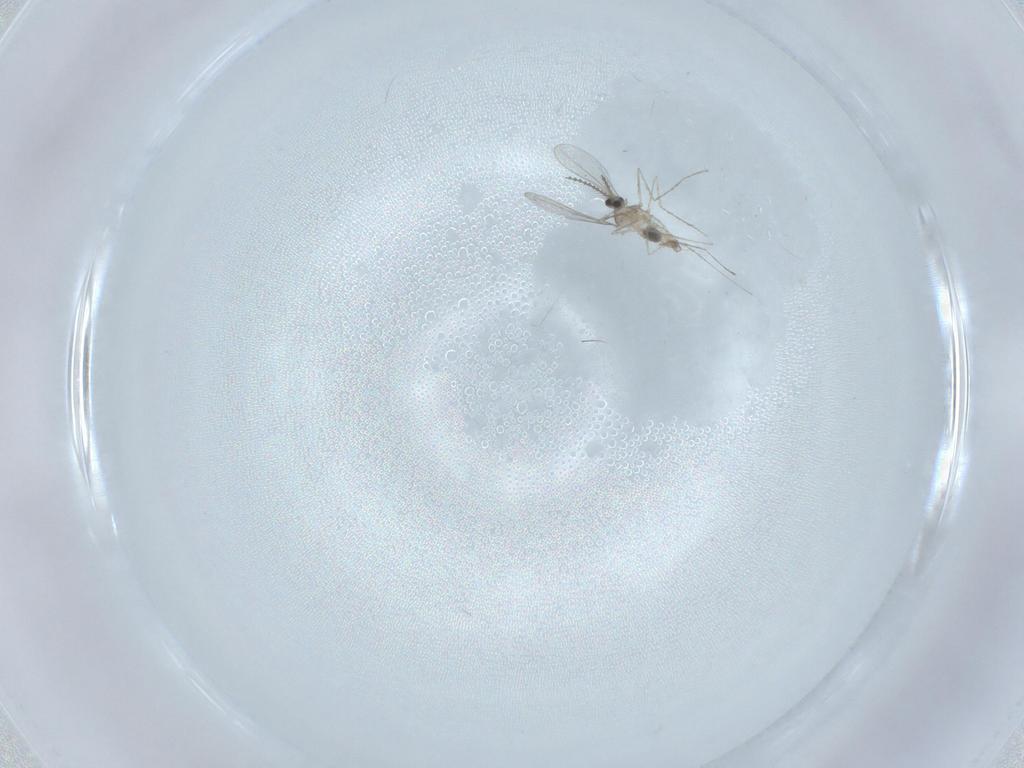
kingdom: Animalia
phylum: Arthropoda
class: Insecta
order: Diptera
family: Cecidomyiidae
